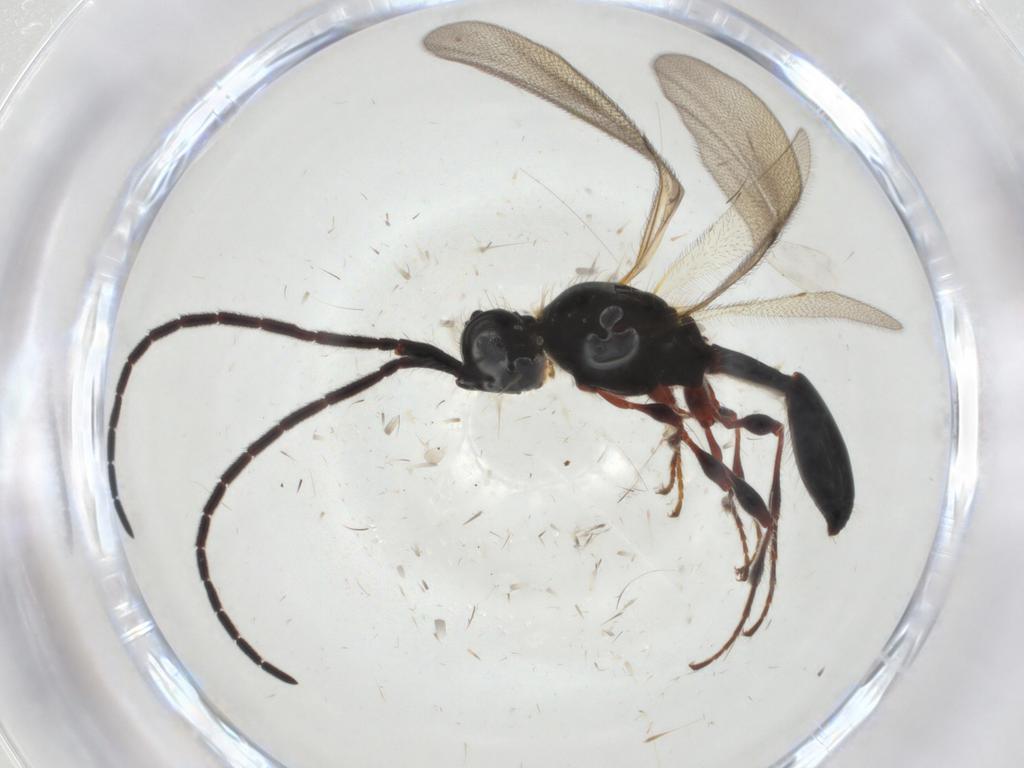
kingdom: Animalia
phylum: Arthropoda
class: Insecta
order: Hymenoptera
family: Diapriidae
